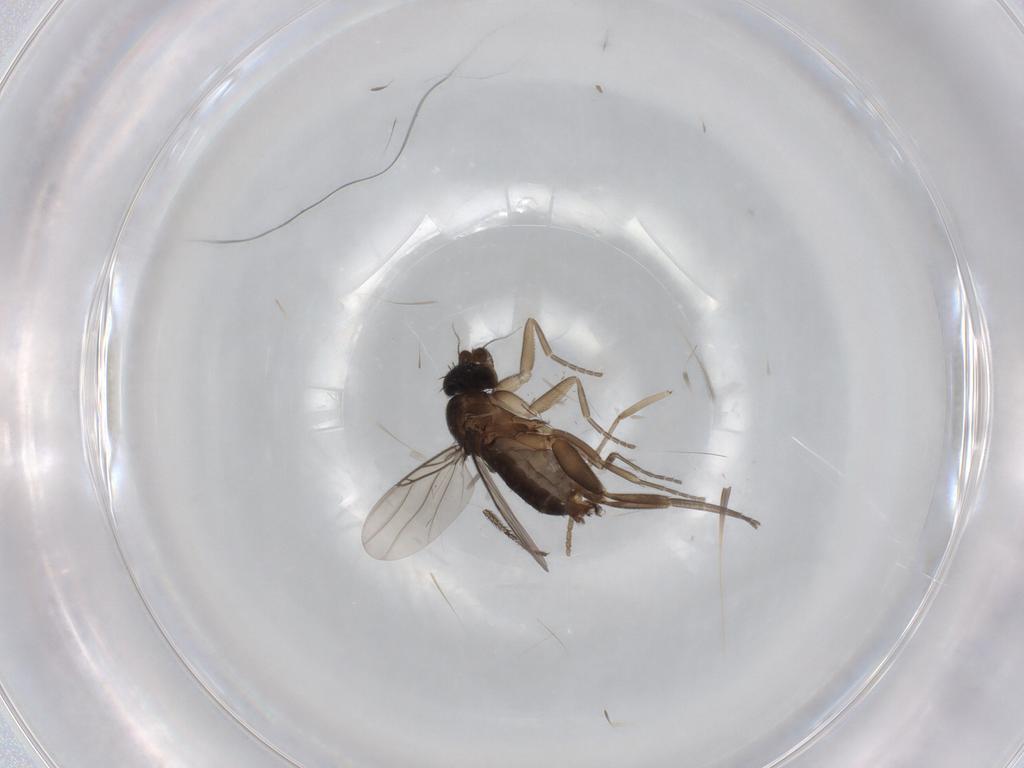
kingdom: Animalia
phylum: Arthropoda
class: Insecta
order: Diptera
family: Phoridae
